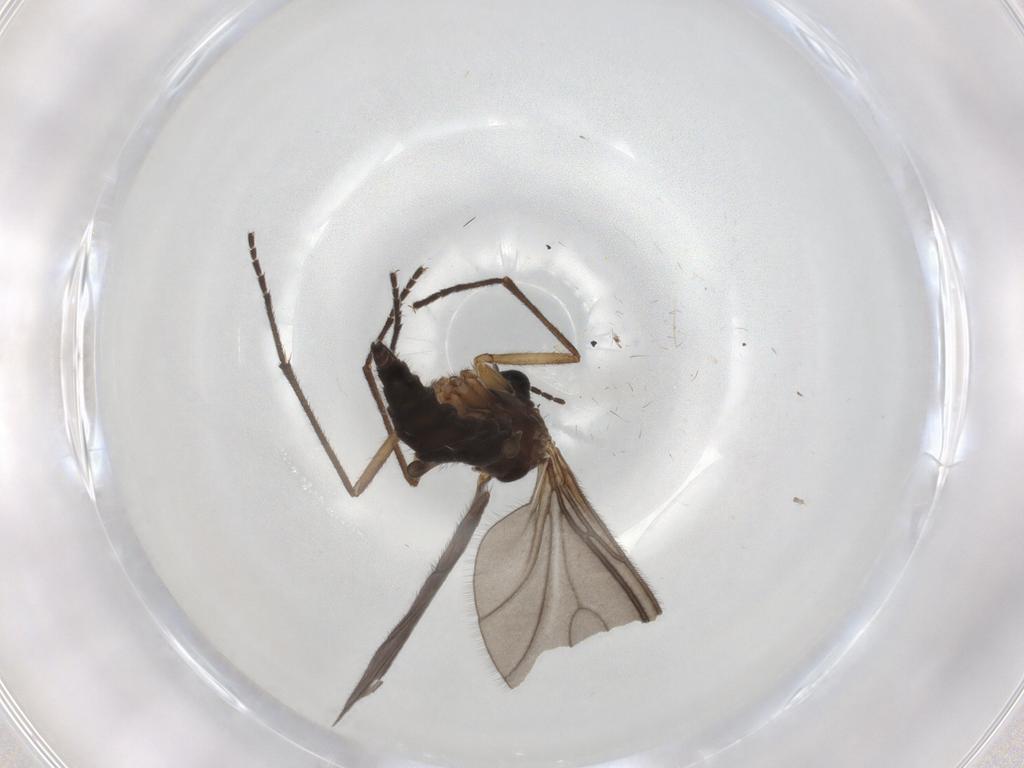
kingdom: Animalia
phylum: Arthropoda
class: Insecta
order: Diptera
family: Sciaridae
